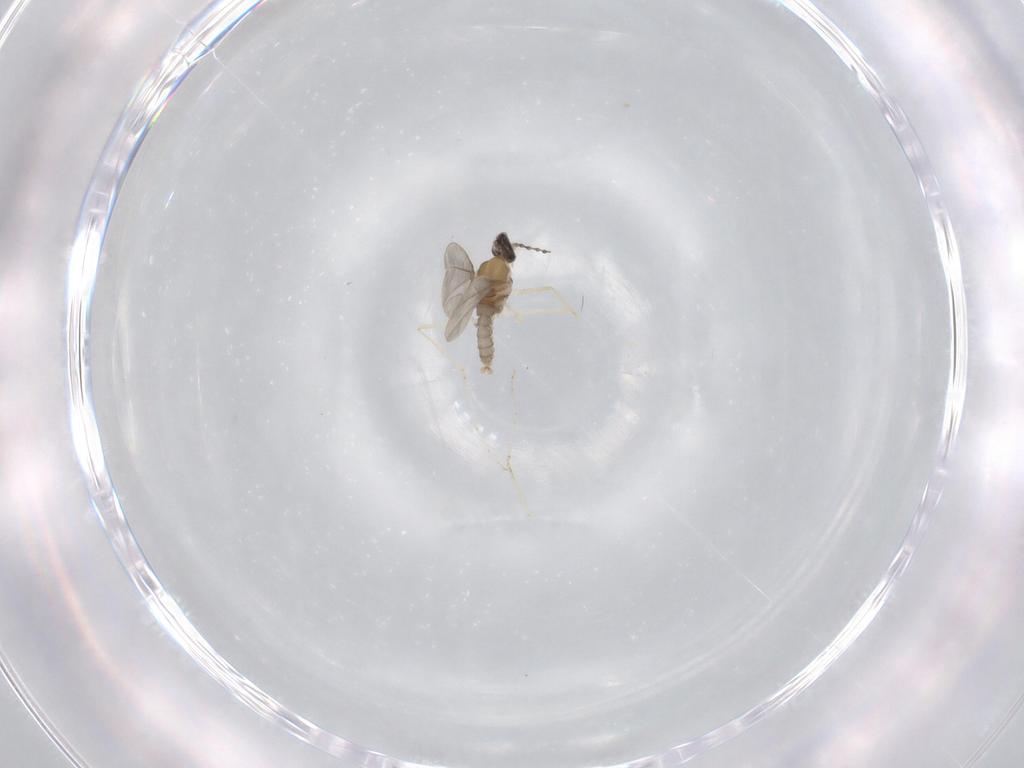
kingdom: Animalia
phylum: Arthropoda
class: Insecta
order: Diptera
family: Cecidomyiidae
